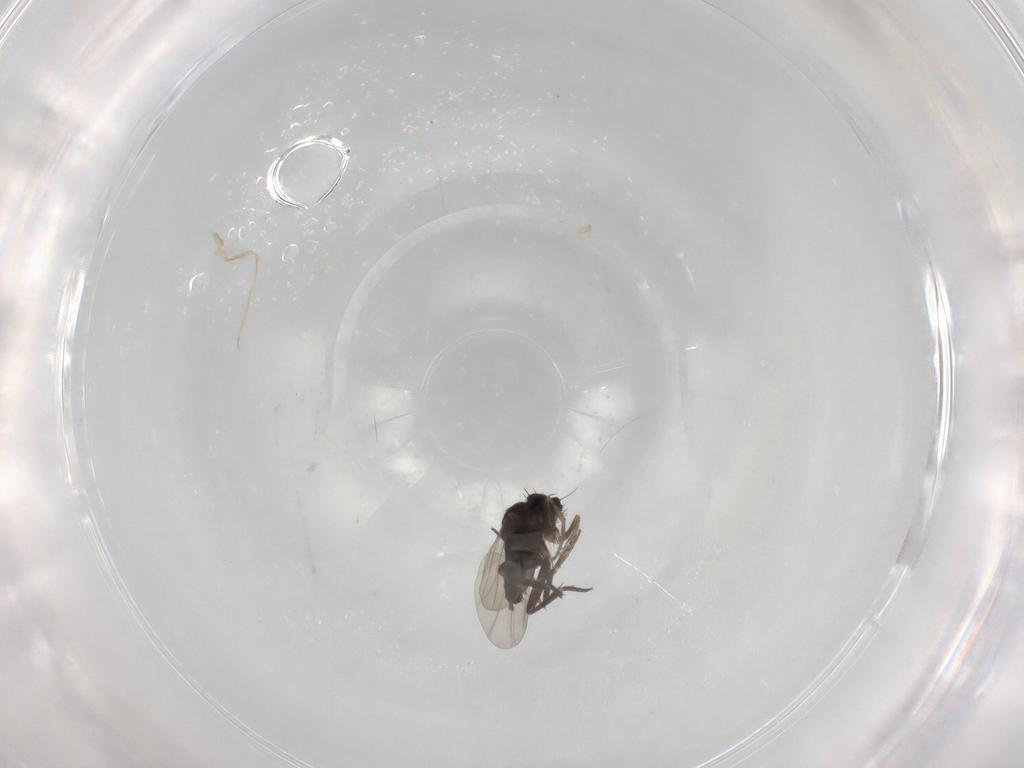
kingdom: Animalia
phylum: Arthropoda
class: Insecta
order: Diptera
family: Phoridae
